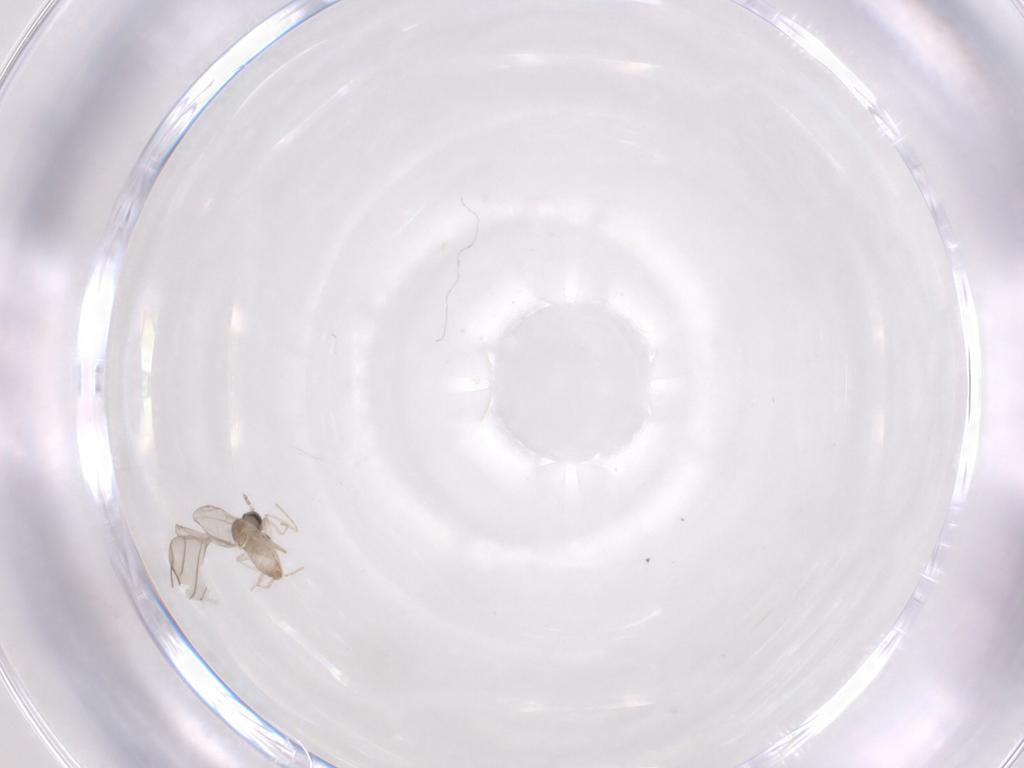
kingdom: Animalia
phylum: Arthropoda
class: Insecta
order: Diptera
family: Cecidomyiidae
